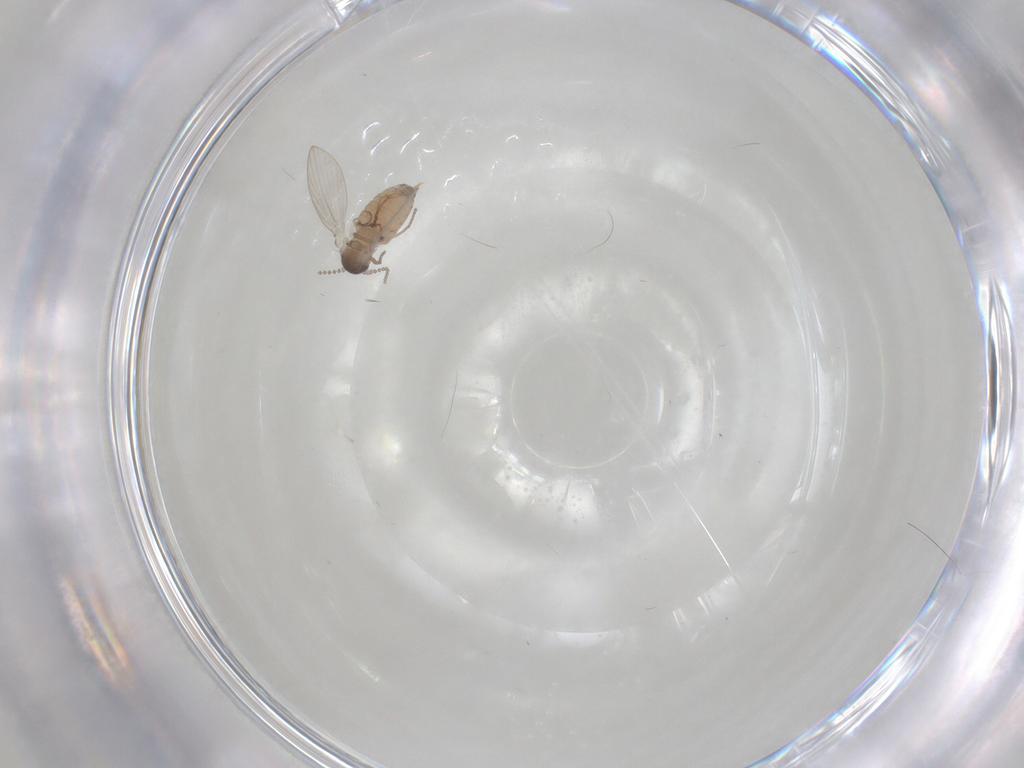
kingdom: Animalia
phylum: Arthropoda
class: Insecta
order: Diptera
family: Psychodidae
